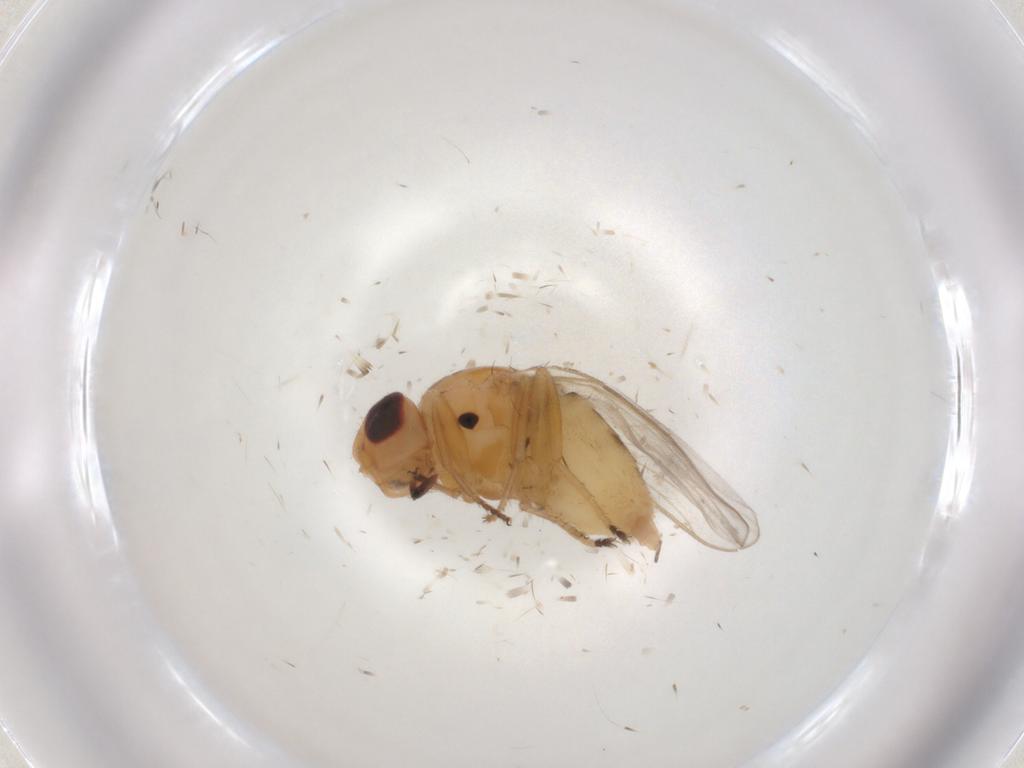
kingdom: Animalia
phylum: Arthropoda
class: Insecta
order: Diptera
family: Chloropidae
